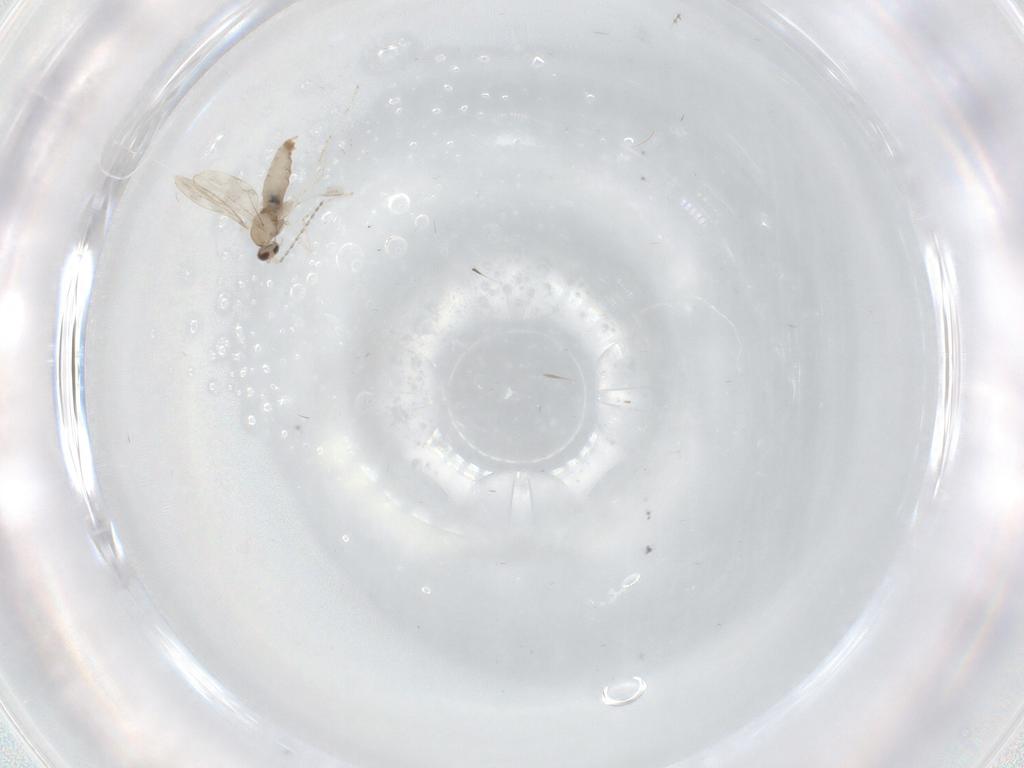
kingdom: Animalia
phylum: Arthropoda
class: Insecta
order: Diptera
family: Cecidomyiidae
